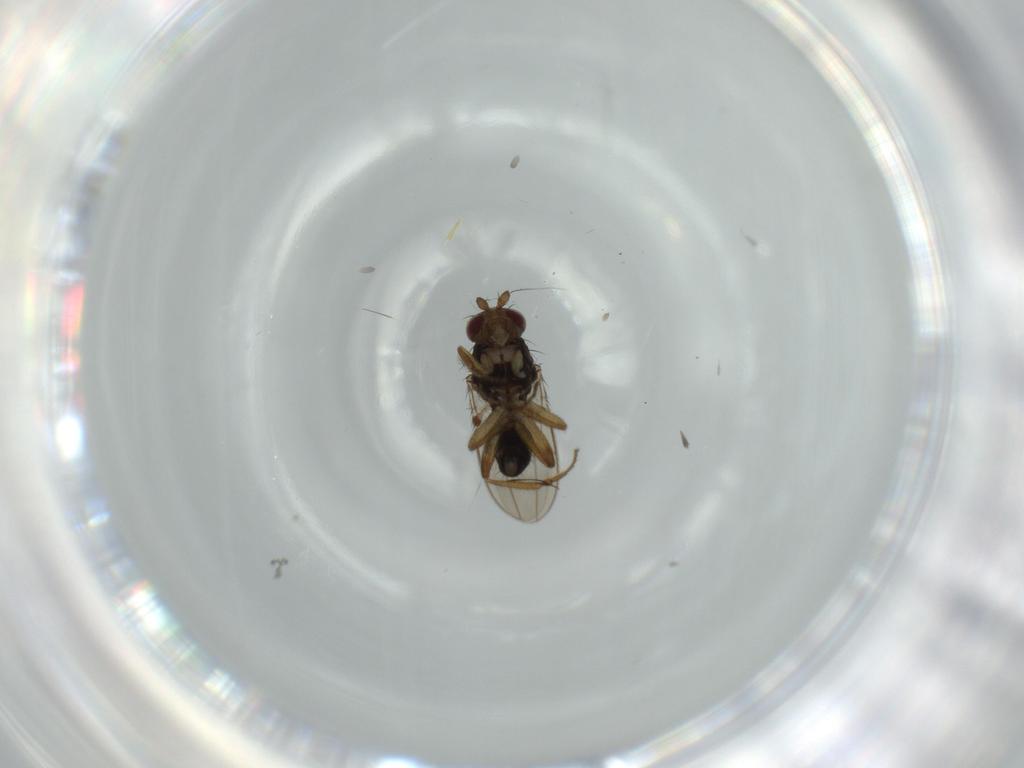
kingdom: Animalia
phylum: Arthropoda
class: Insecta
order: Diptera
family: Sphaeroceridae
